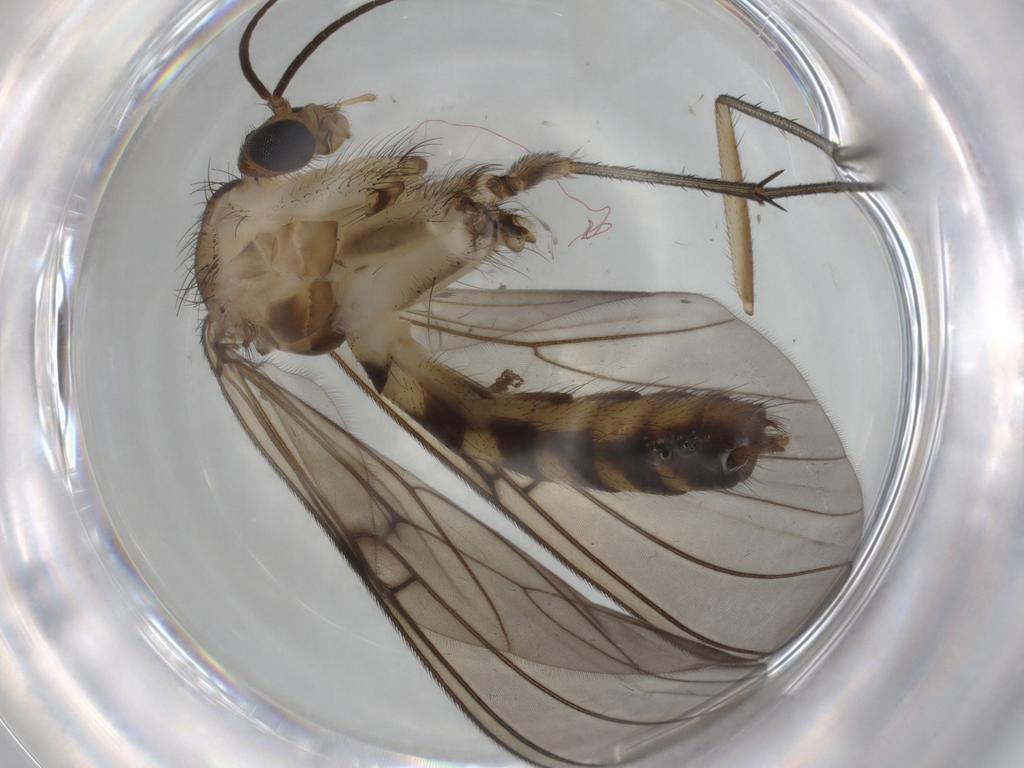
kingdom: Animalia
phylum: Arthropoda
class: Insecta
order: Diptera
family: Mycetophilidae
